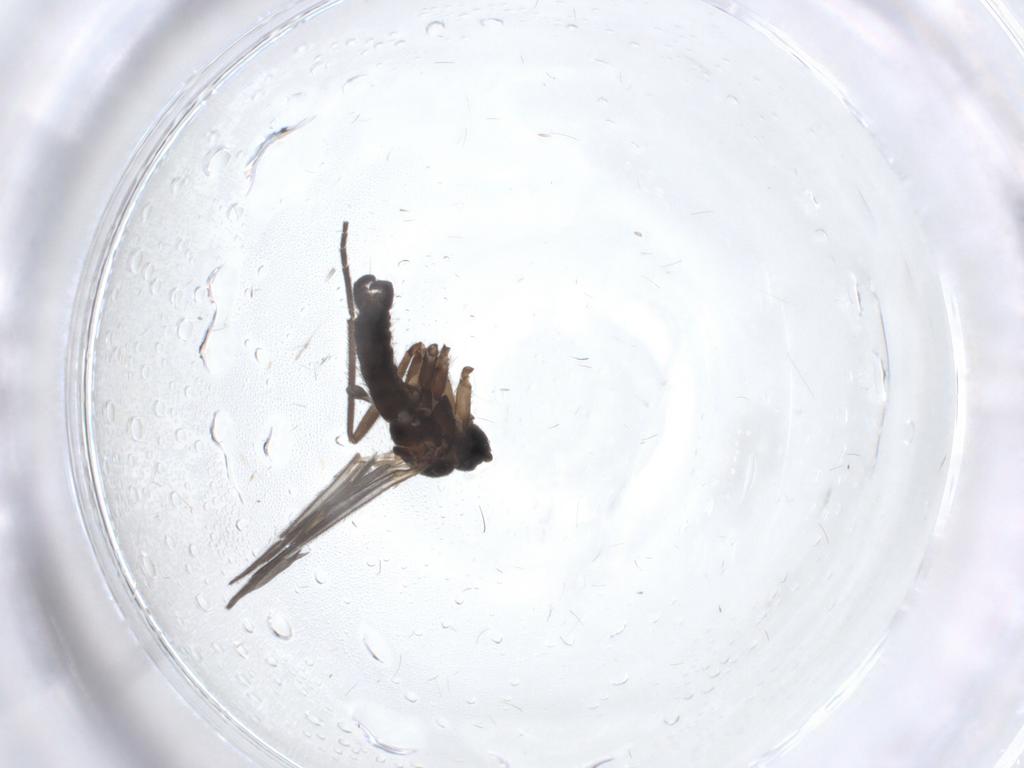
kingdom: Animalia
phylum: Arthropoda
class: Insecta
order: Diptera
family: Sciaridae
